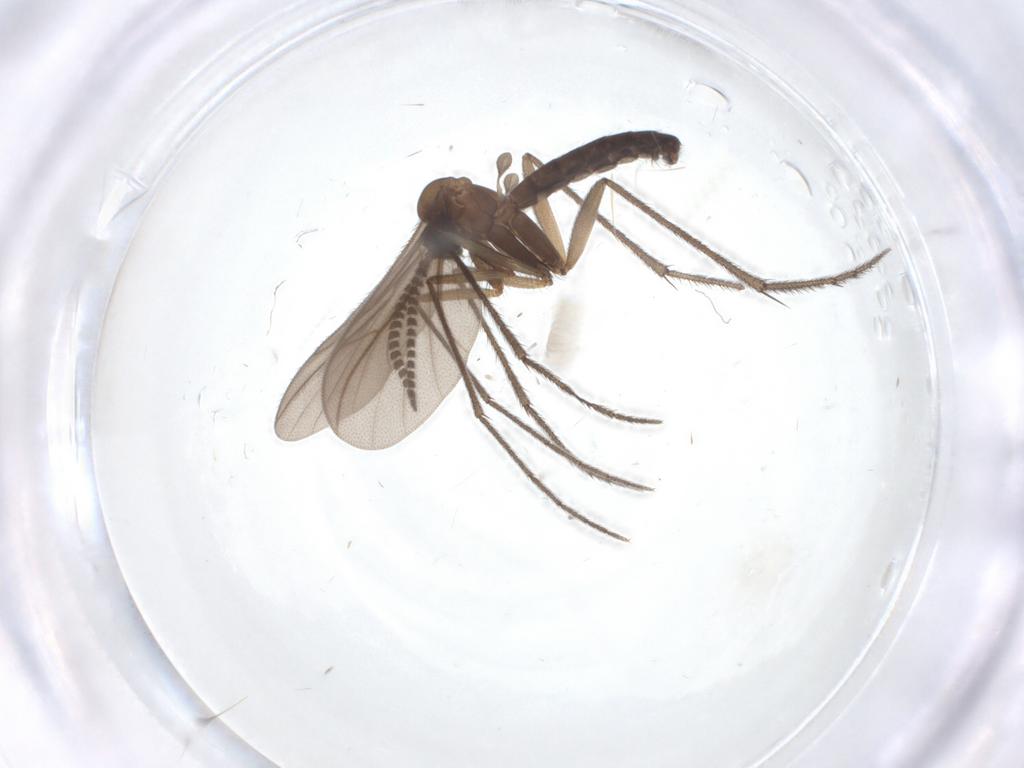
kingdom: Animalia
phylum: Arthropoda
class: Insecta
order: Diptera
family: Ditomyiidae
